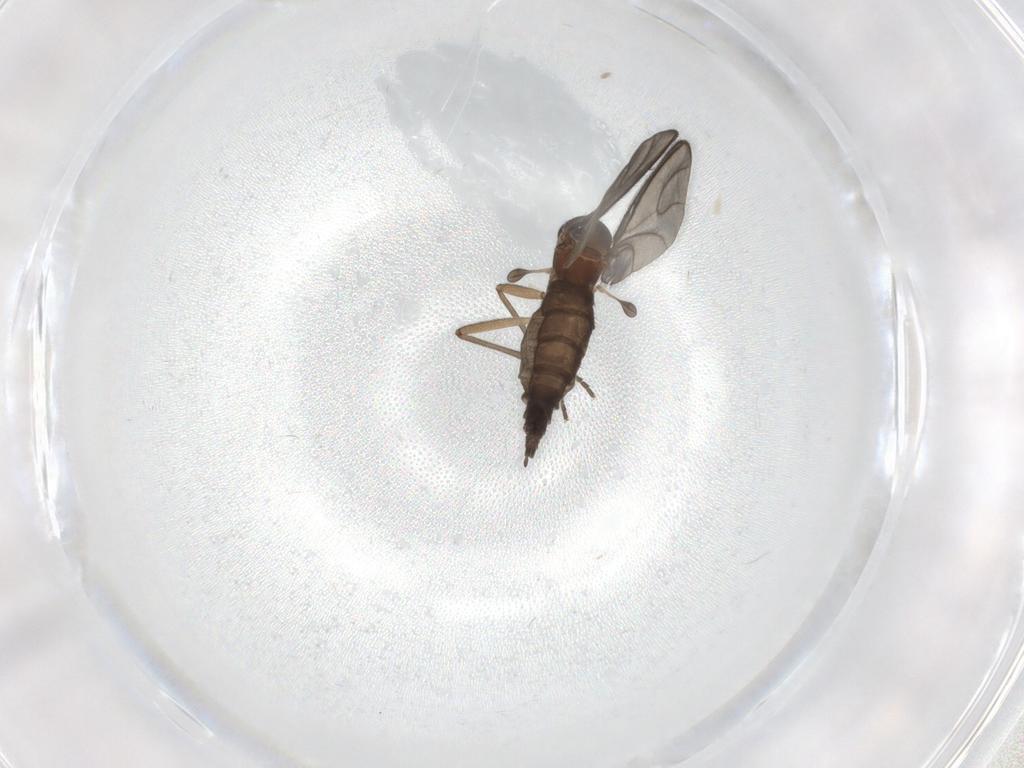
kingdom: Animalia
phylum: Arthropoda
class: Insecta
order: Diptera
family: Sciaridae
